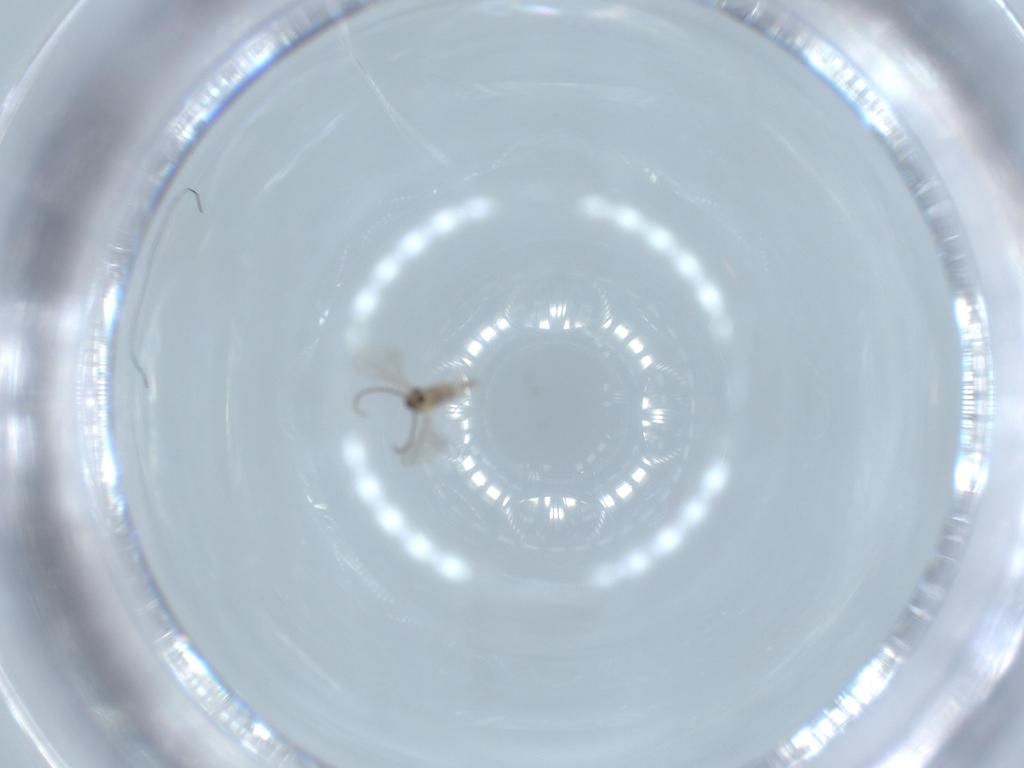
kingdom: Animalia
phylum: Arthropoda
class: Insecta
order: Diptera
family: Cecidomyiidae
